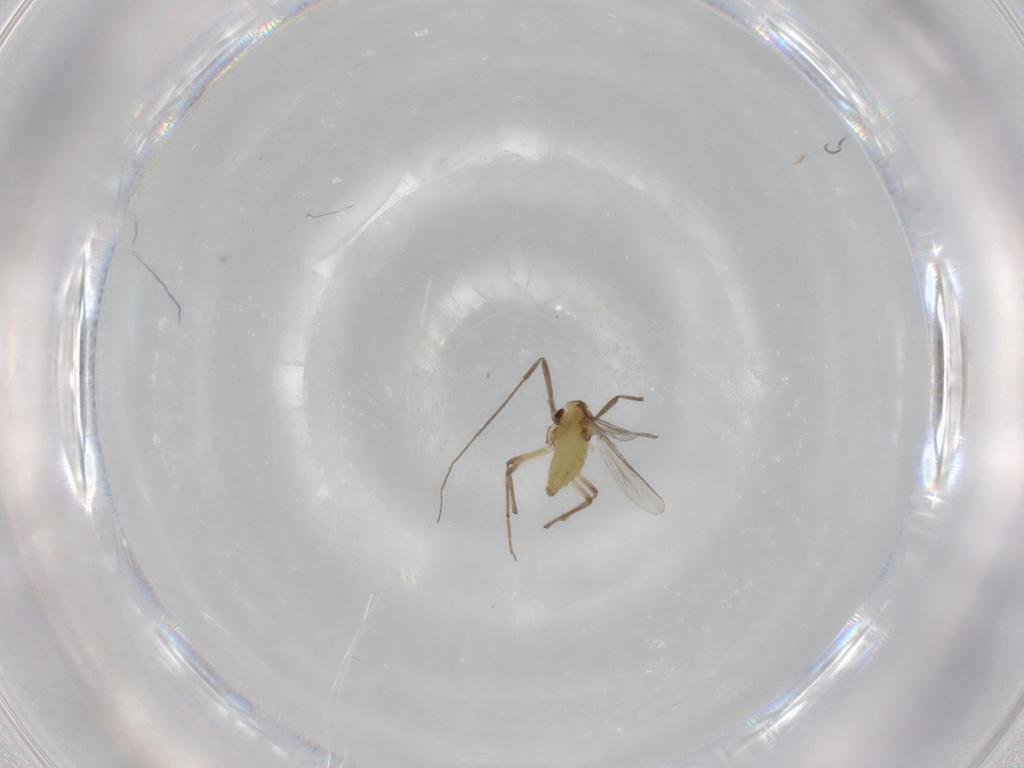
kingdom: Animalia
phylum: Arthropoda
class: Insecta
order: Diptera
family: Chironomidae
